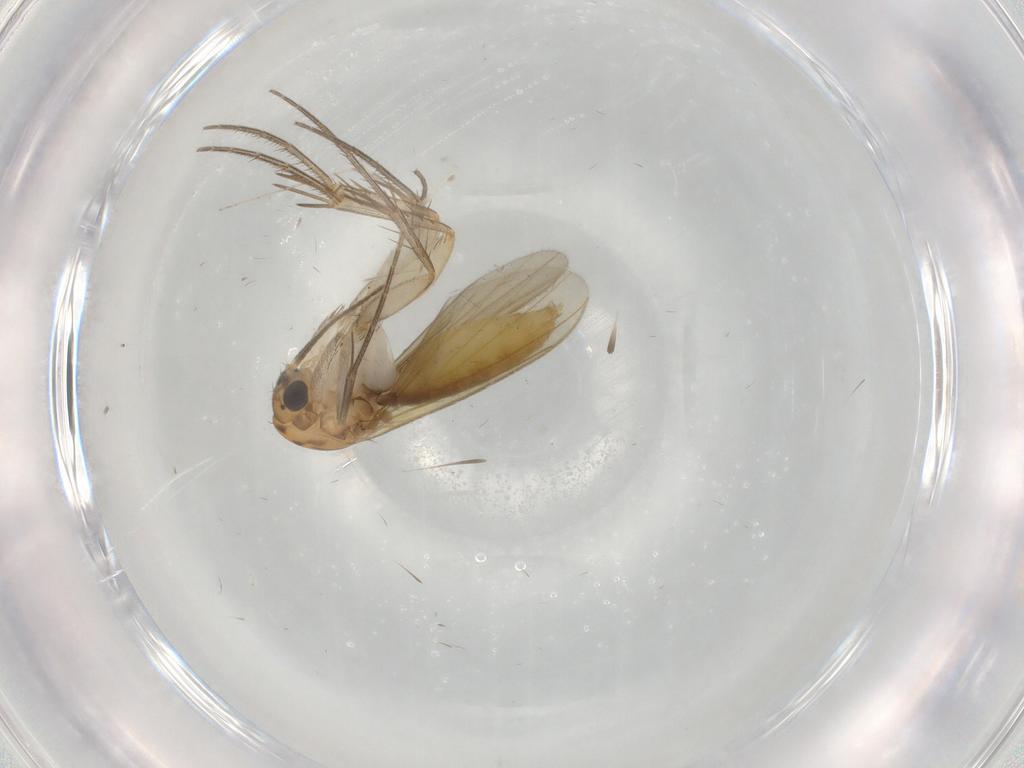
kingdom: Animalia
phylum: Arthropoda
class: Insecta
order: Diptera
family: Mycetophilidae
